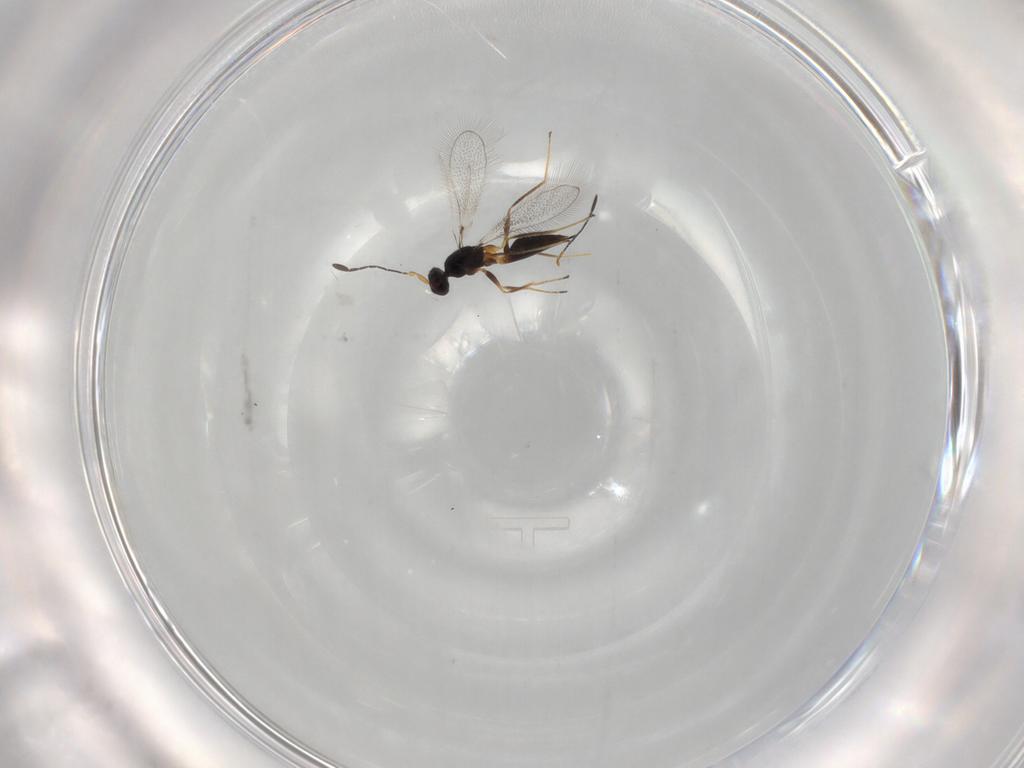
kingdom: Animalia
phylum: Arthropoda
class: Insecta
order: Hymenoptera
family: Mymaridae
